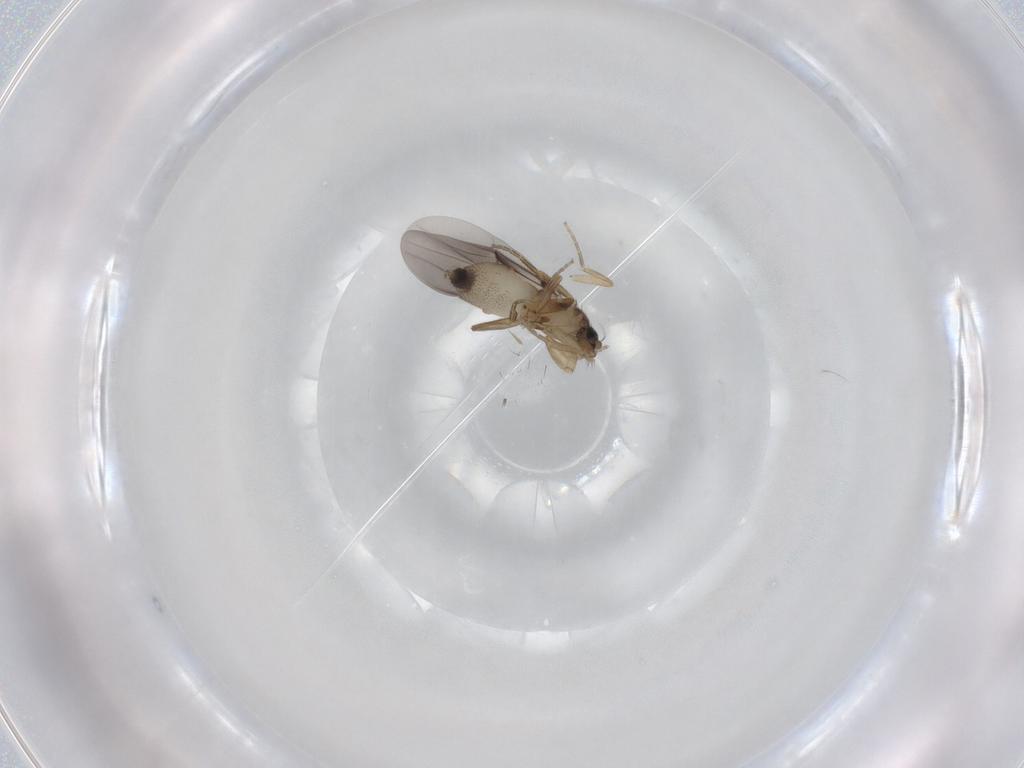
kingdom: Animalia
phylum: Arthropoda
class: Insecta
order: Diptera
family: Phoridae
